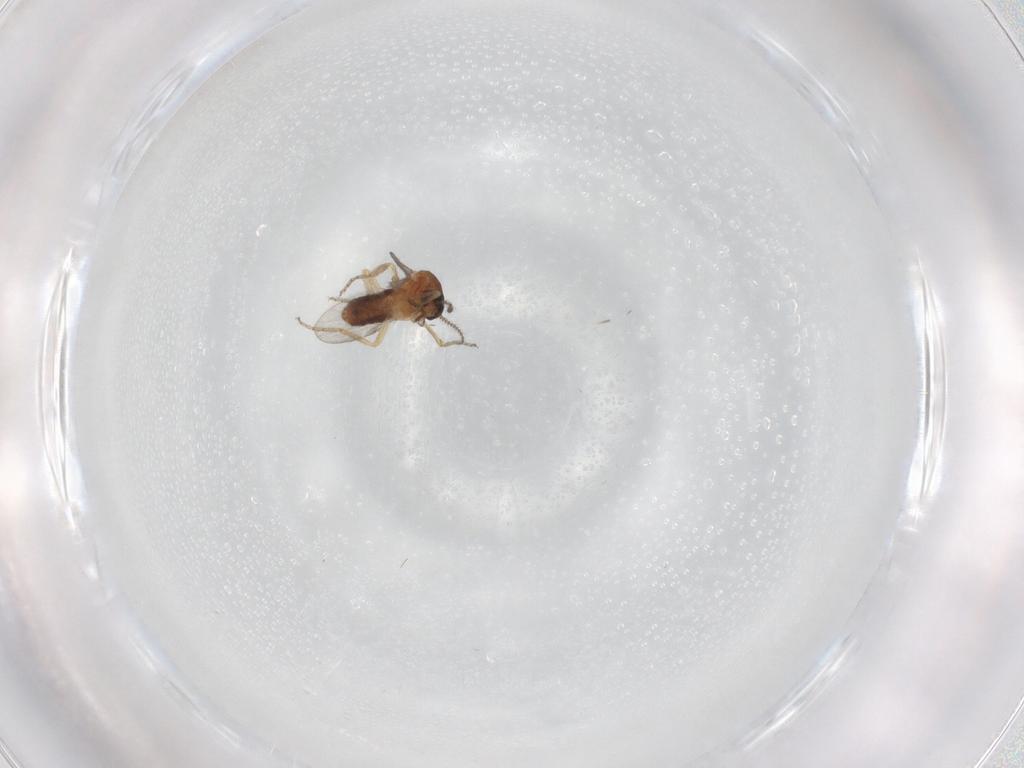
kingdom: Animalia
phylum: Arthropoda
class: Insecta
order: Diptera
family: Ceratopogonidae
